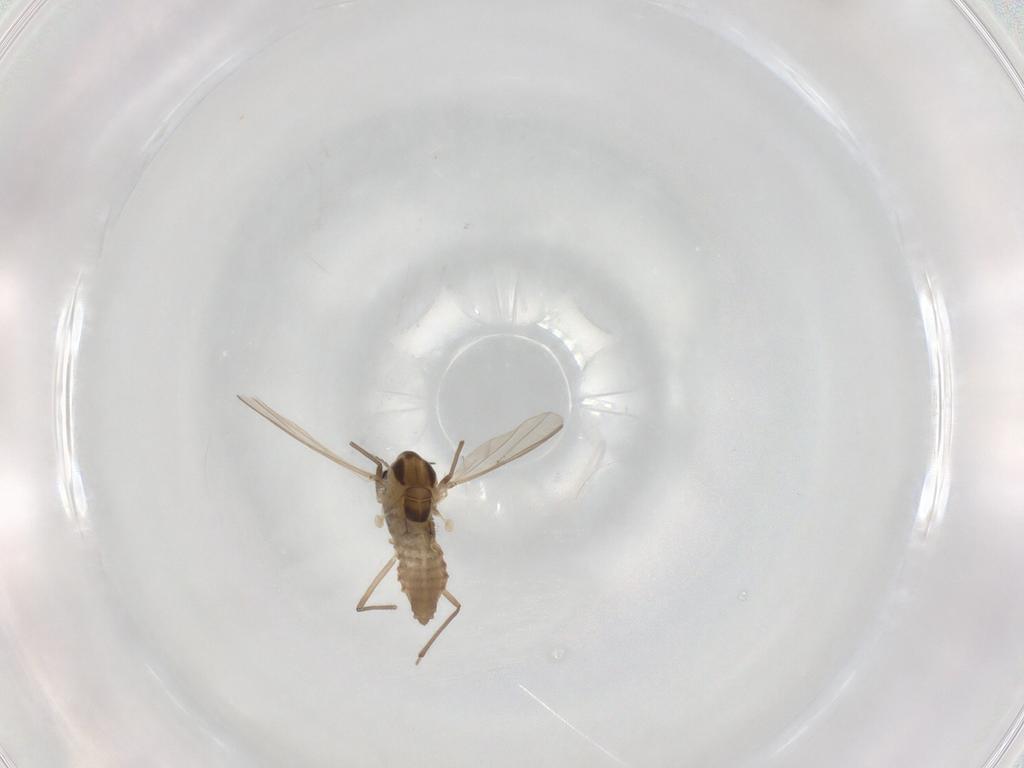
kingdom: Animalia
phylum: Arthropoda
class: Insecta
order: Diptera
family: Chironomidae
